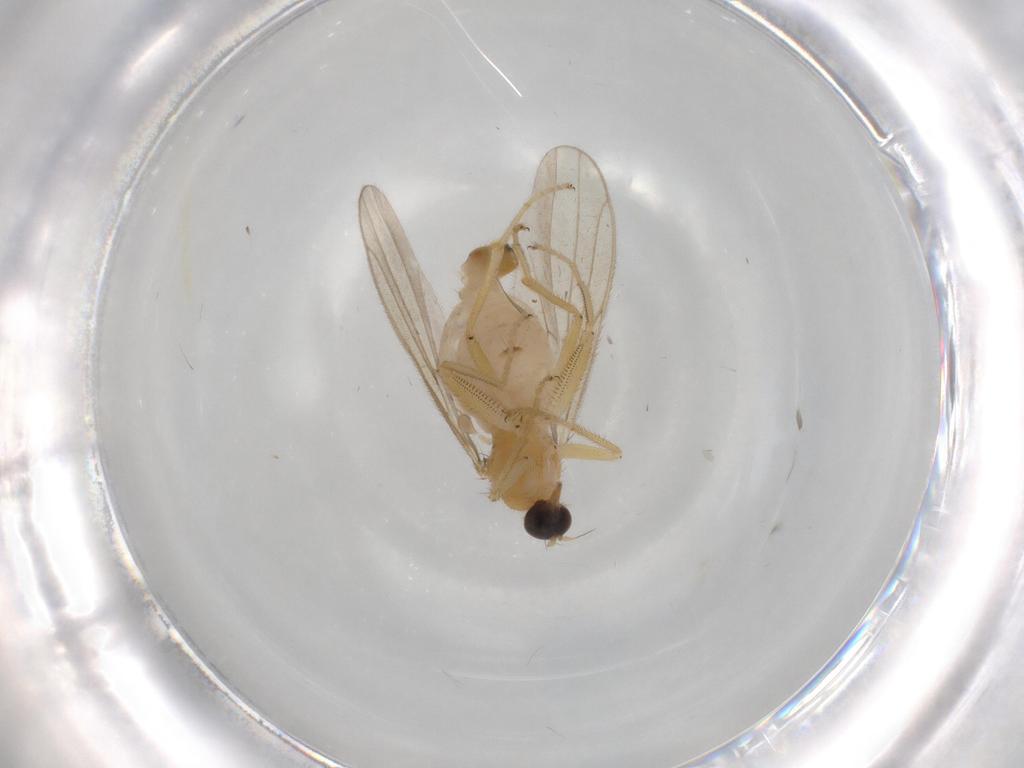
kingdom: Animalia
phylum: Arthropoda
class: Insecta
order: Diptera
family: Hybotidae
